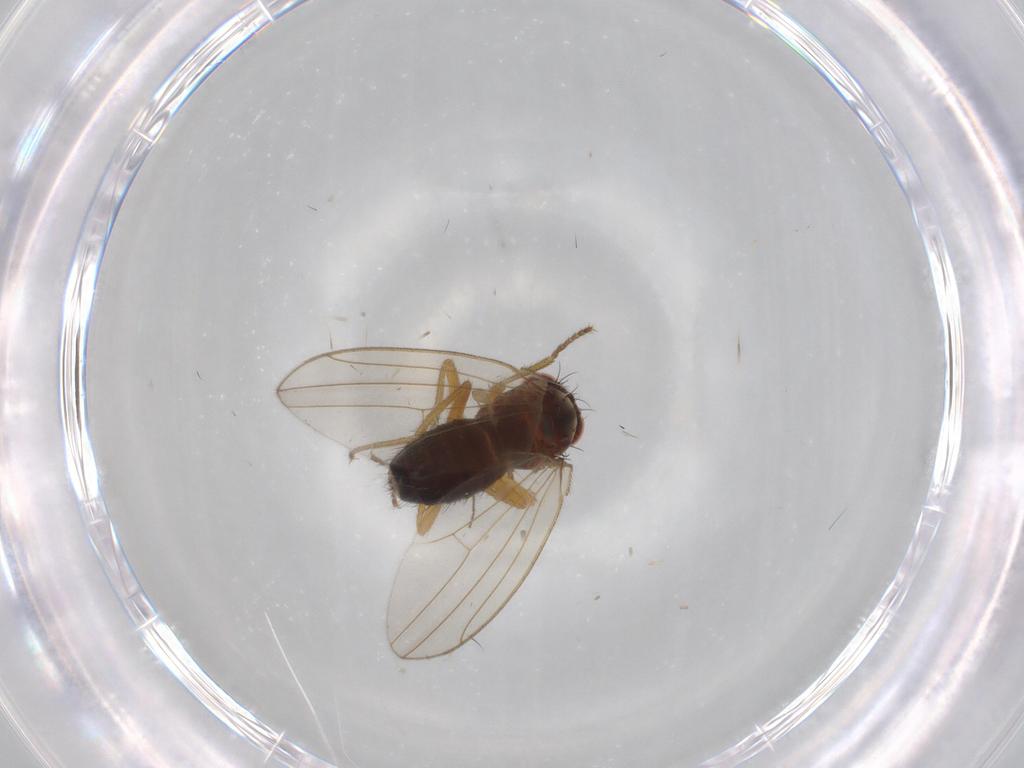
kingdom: Animalia
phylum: Arthropoda
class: Insecta
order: Diptera
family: Drosophilidae
